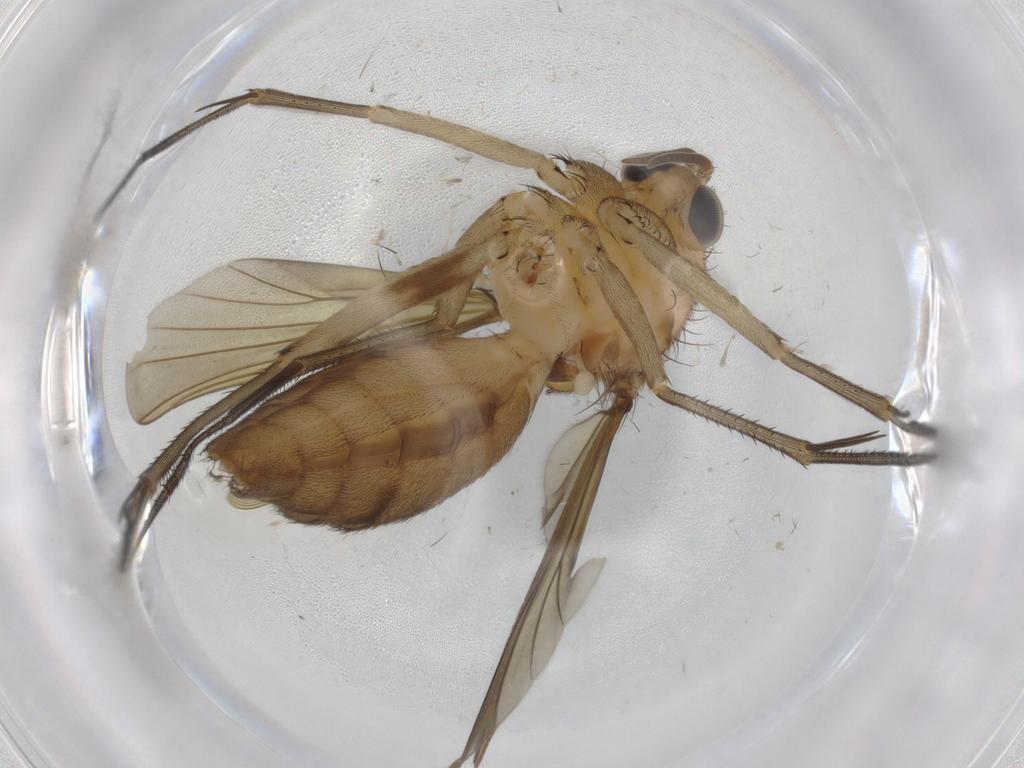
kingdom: Animalia
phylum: Arthropoda
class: Insecta
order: Diptera
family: Mycetophilidae
